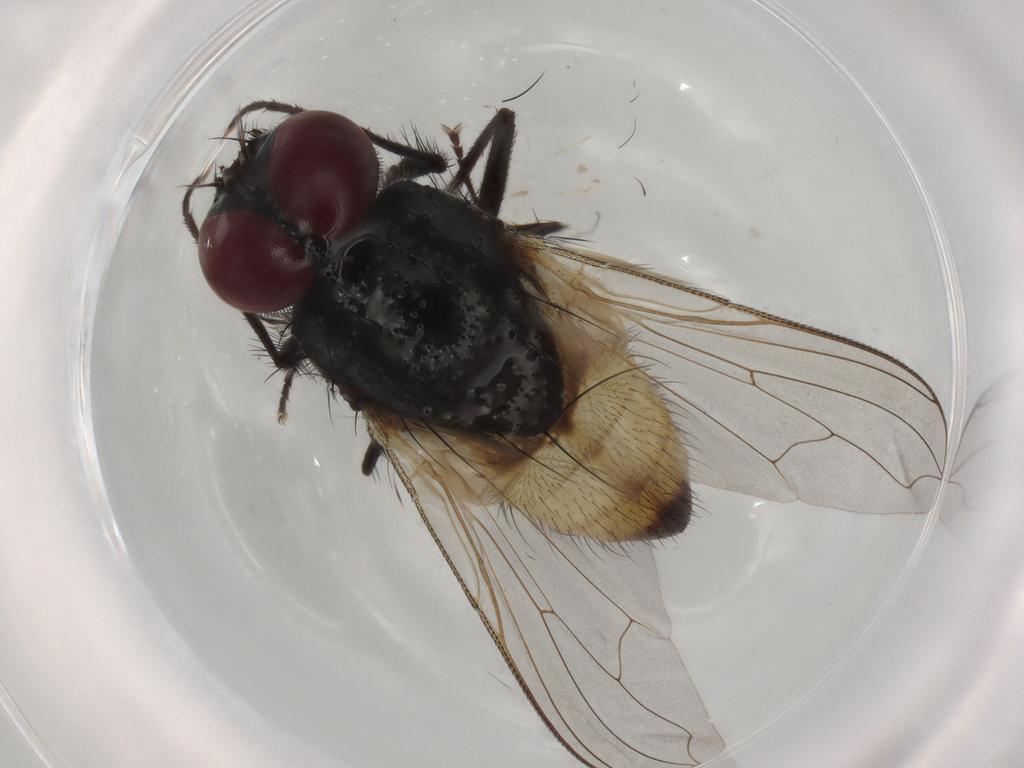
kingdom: Animalia
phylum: Arthropoda
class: Insecta
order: Diptera
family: Muscidae
